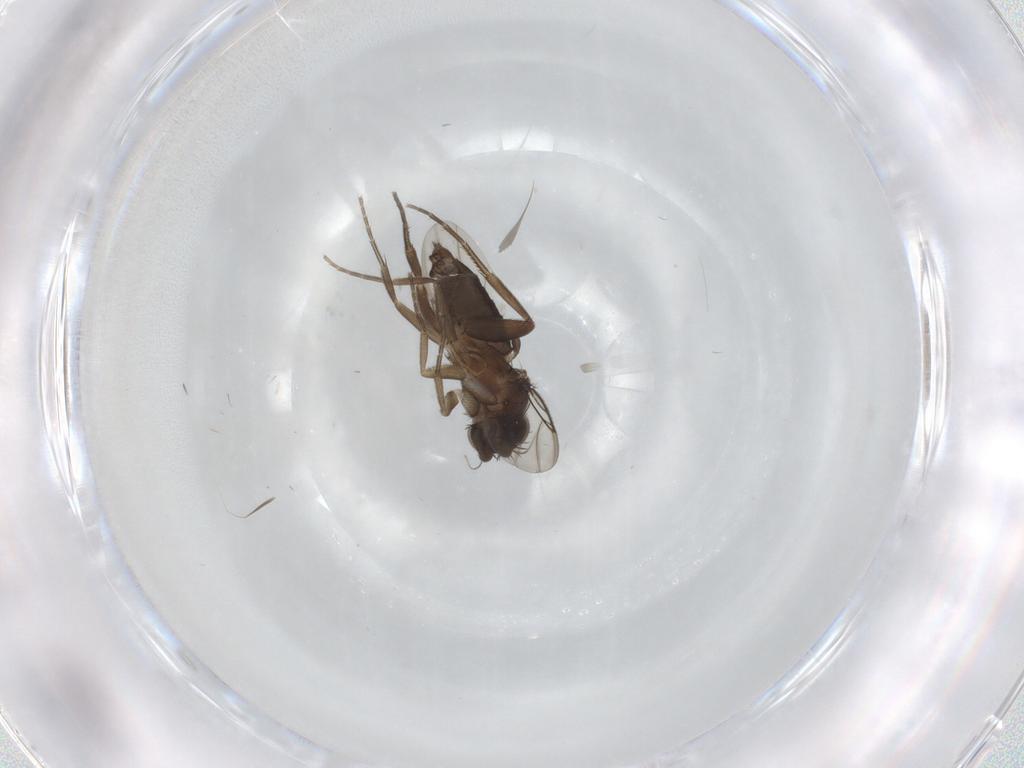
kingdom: Animalia
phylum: Arthropoda
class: Insecta
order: Diptera
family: Phoridae
